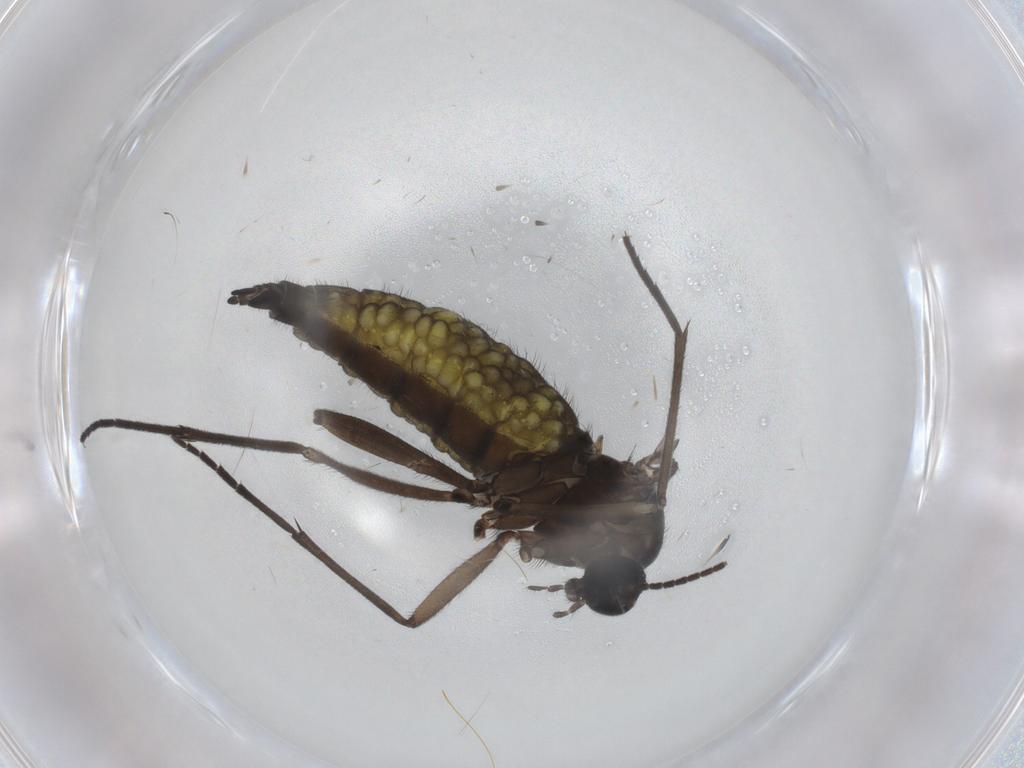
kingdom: Animalia
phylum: Arthropoda
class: Insecta
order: Diptera
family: Sciaridae
